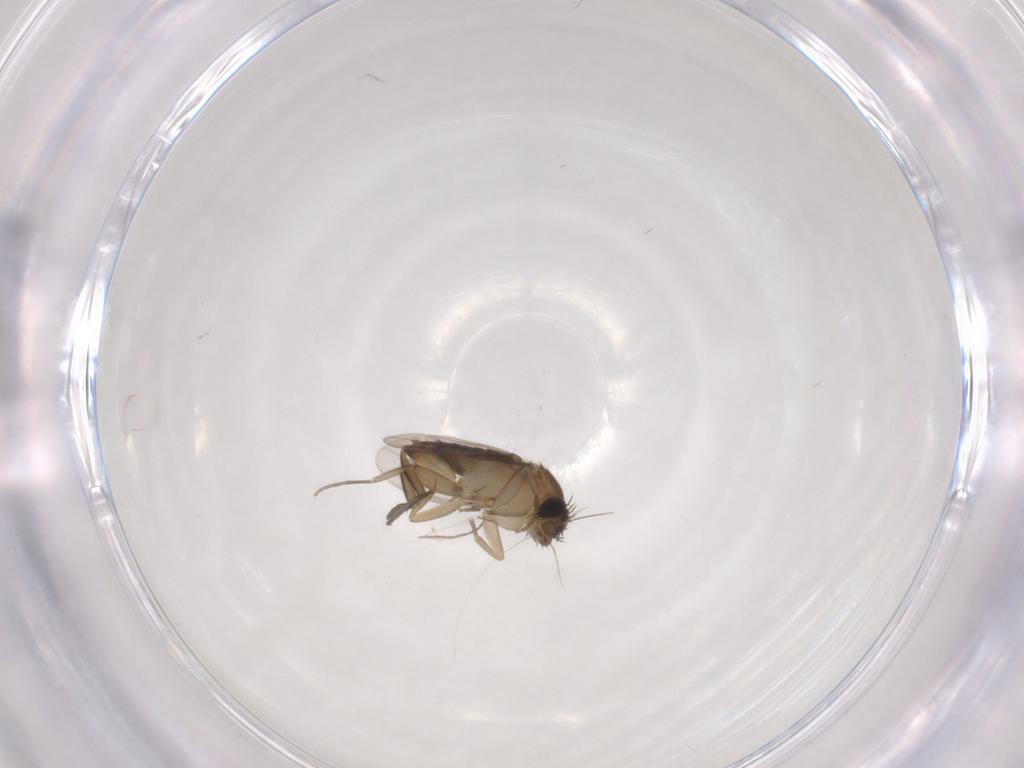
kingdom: Animalia
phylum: Arthropoda
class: Insecta
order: Diptera
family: Phoridae
